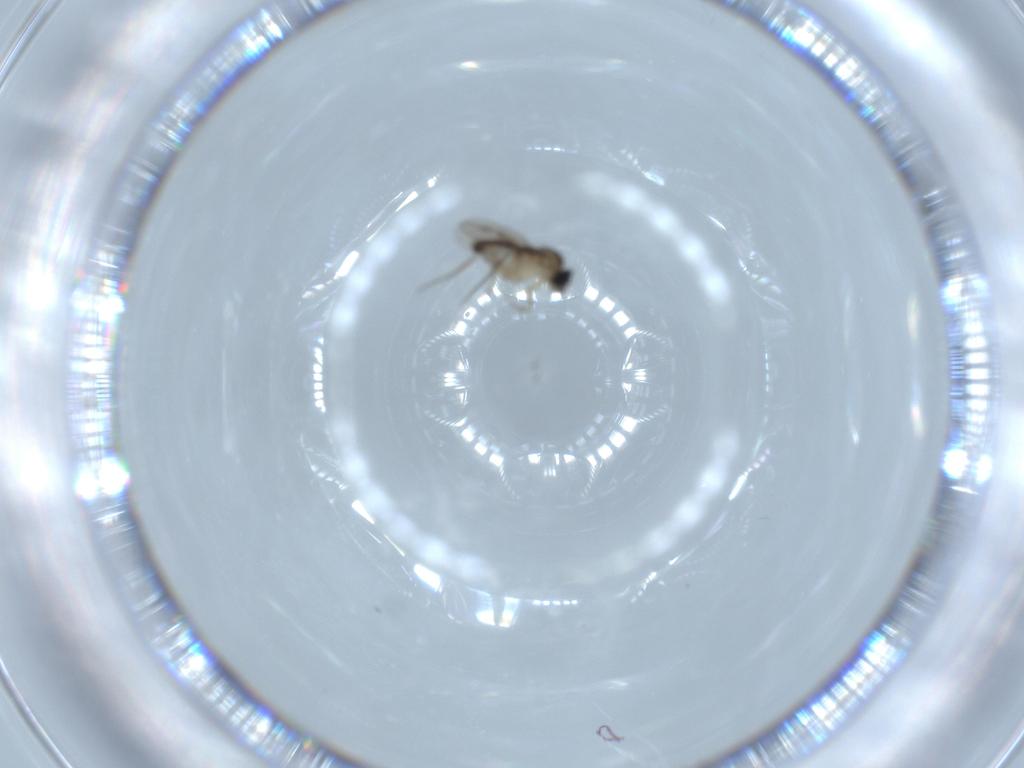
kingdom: Animalia
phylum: Arthropoda
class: Insecta
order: Diptera
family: Phoridae
